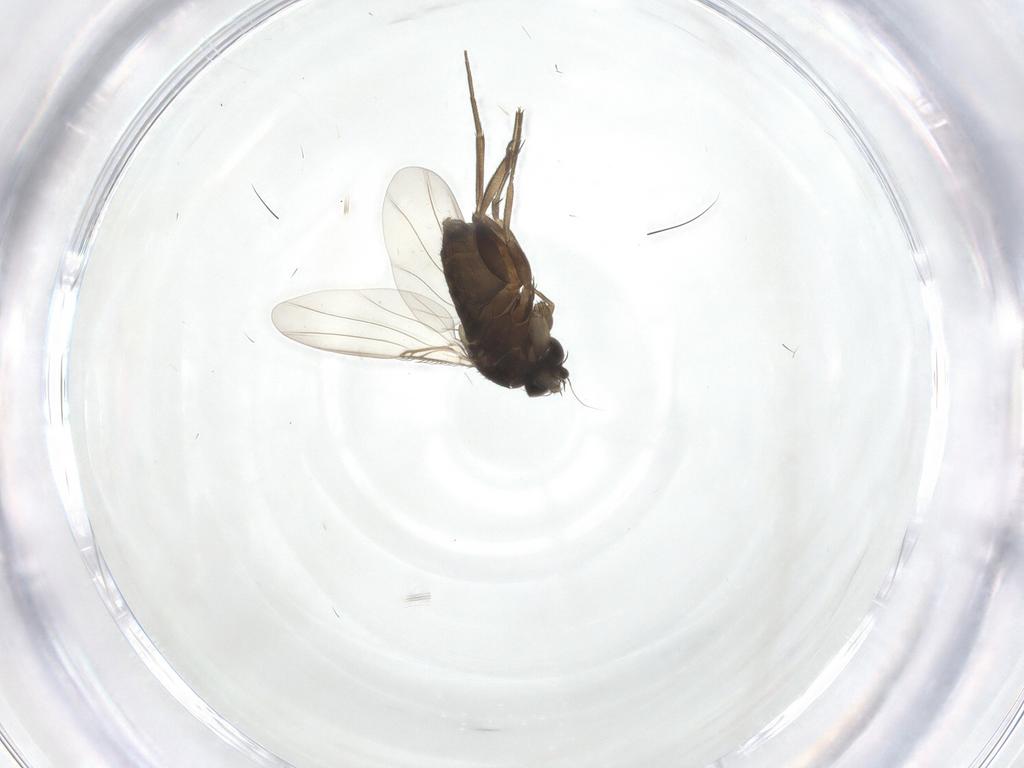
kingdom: Animalia
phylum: Arthropoda
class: Insecta
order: Diptera
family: Phoridae
